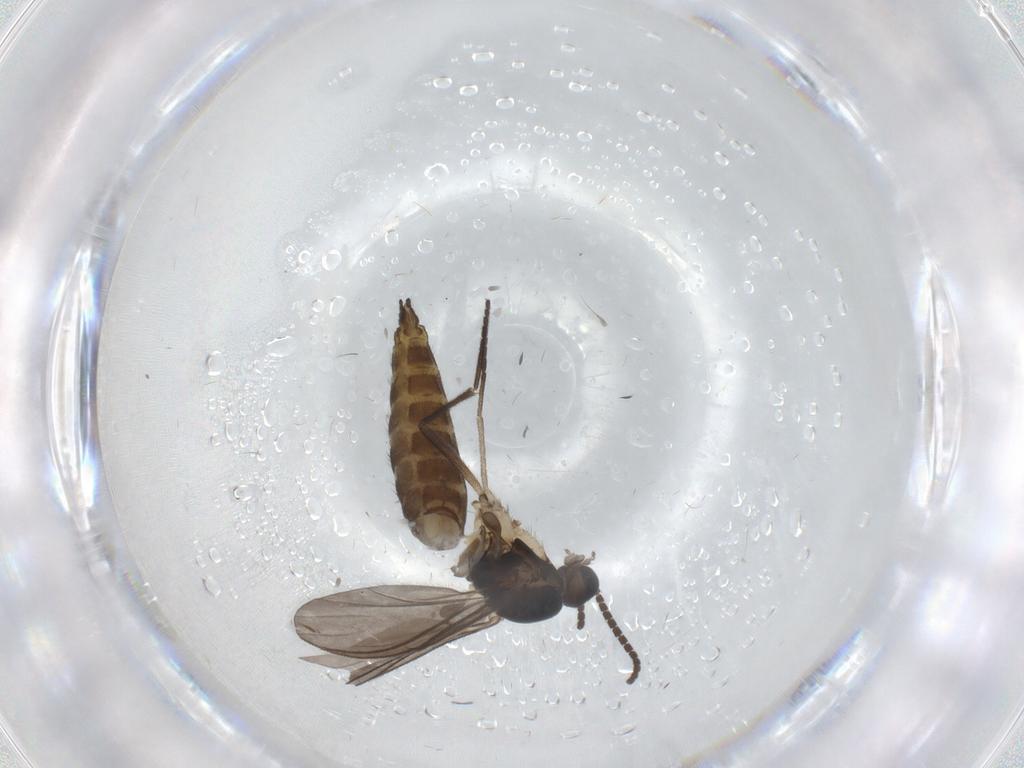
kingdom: Animalia
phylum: Arthropoda
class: Insecta
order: Diptera
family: Sciaridae
